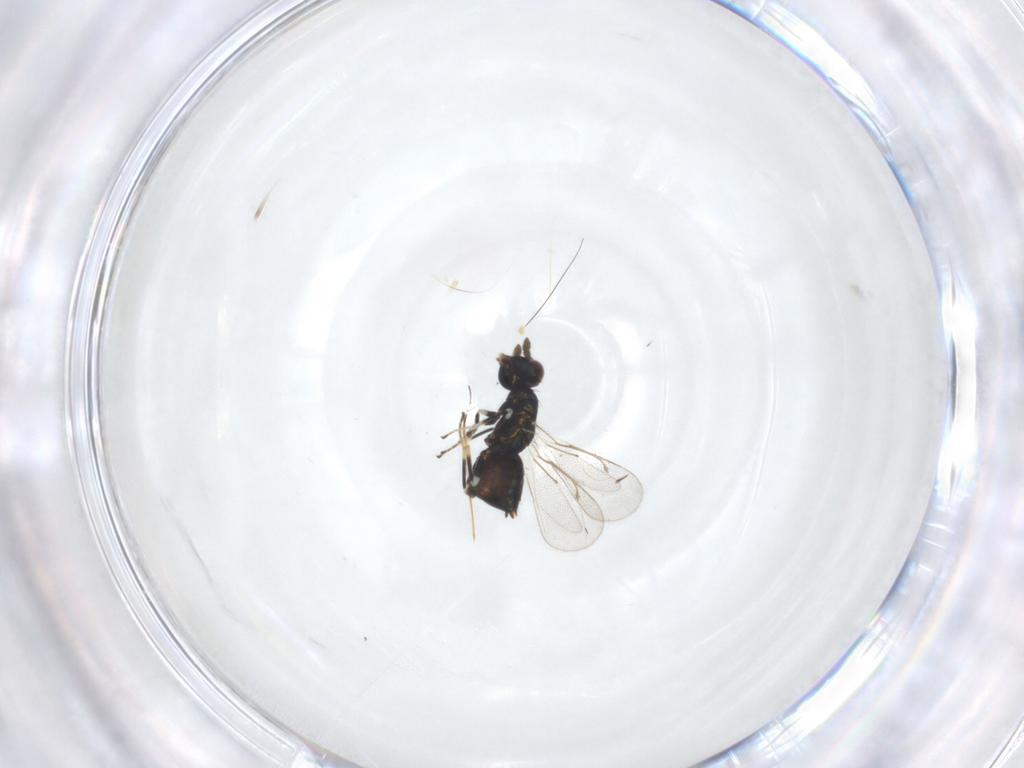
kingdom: Animalia
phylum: Arthropoda
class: Insecta
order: Hymenoptera
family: Eulophidae
